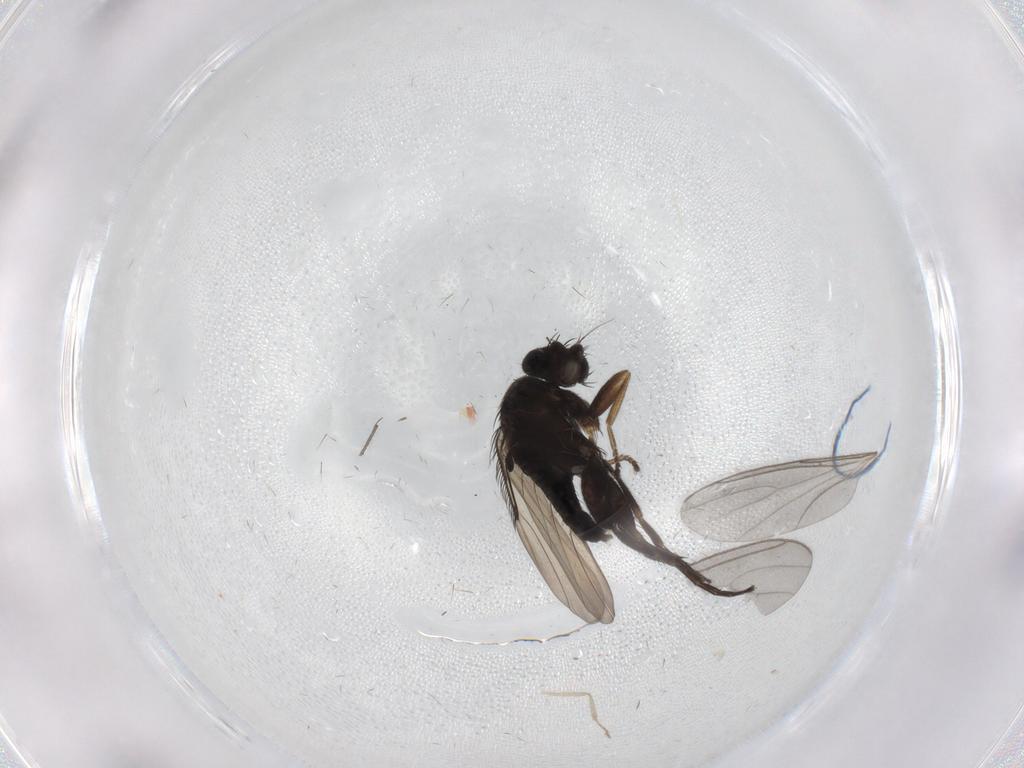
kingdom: Animalia
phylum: Arthropoda
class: Insecta
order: Diptera
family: Phoridae
